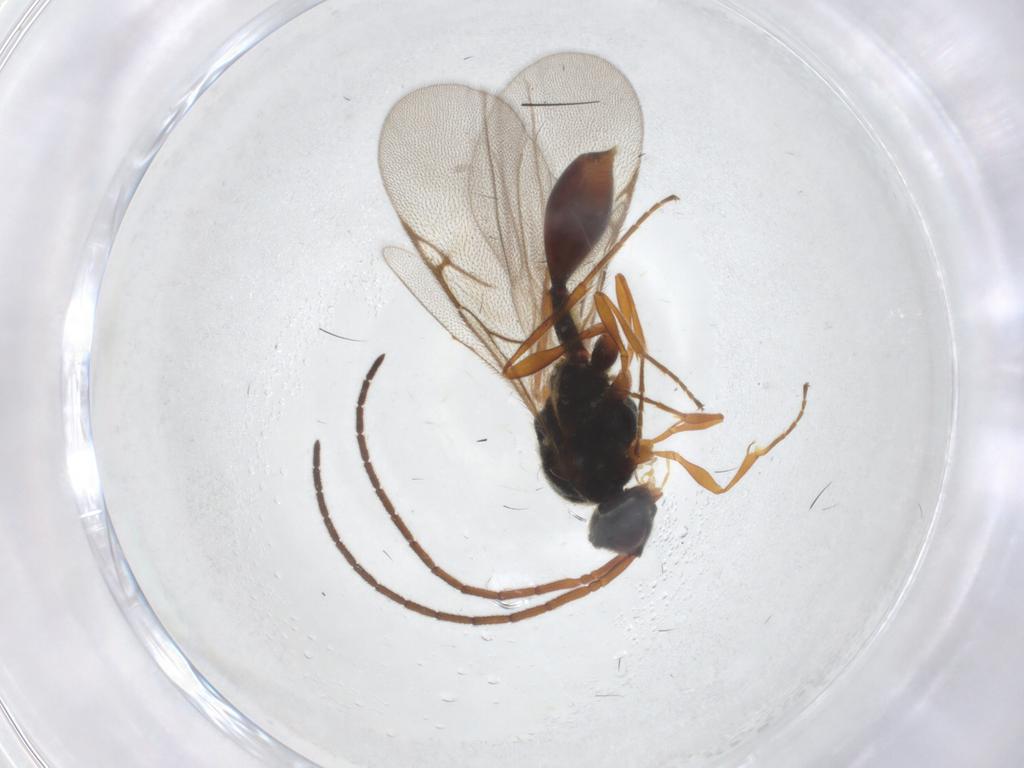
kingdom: Animalia
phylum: Arthropoda
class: Insecta
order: Hymenoptera
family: Diapriidae
